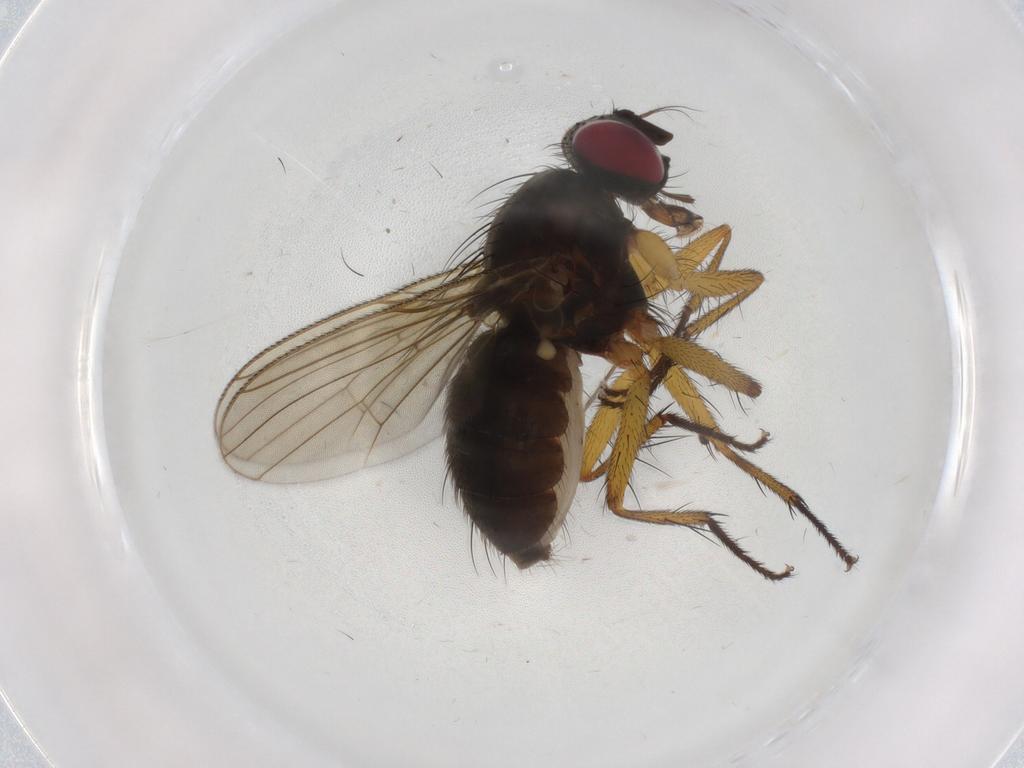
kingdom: Animalia
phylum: Arthropoda
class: Insecta
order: Diptera
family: Muscidae
